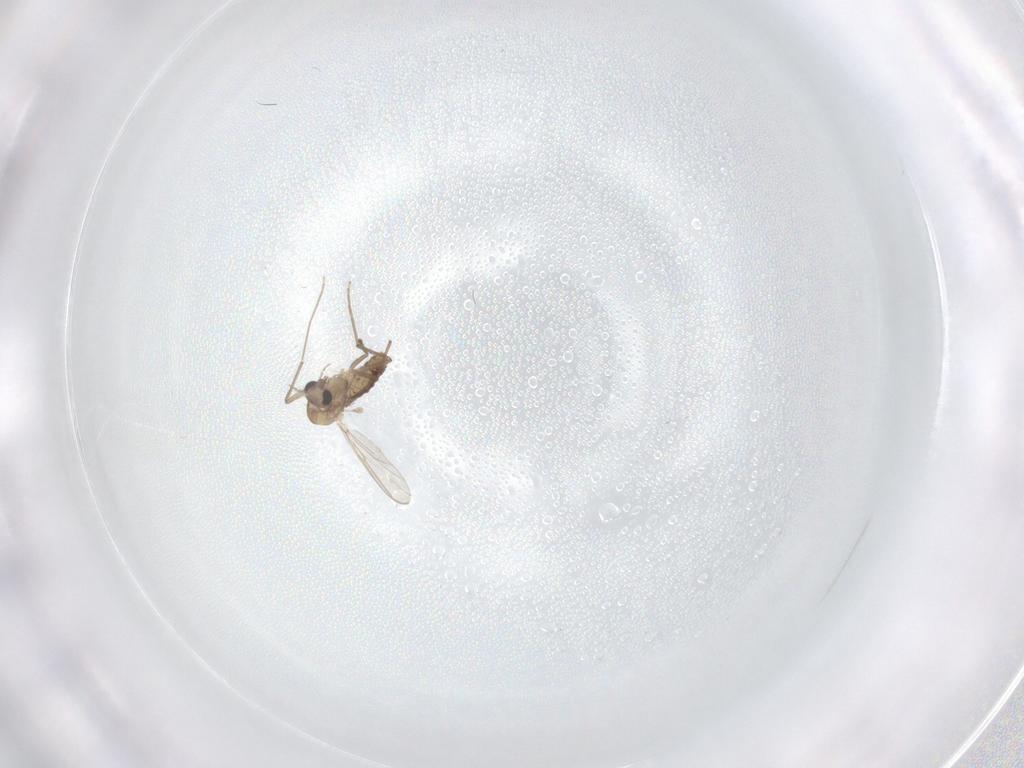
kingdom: Animalia
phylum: Arthropoda
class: Insecta
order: Diptera
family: Chironomidae
